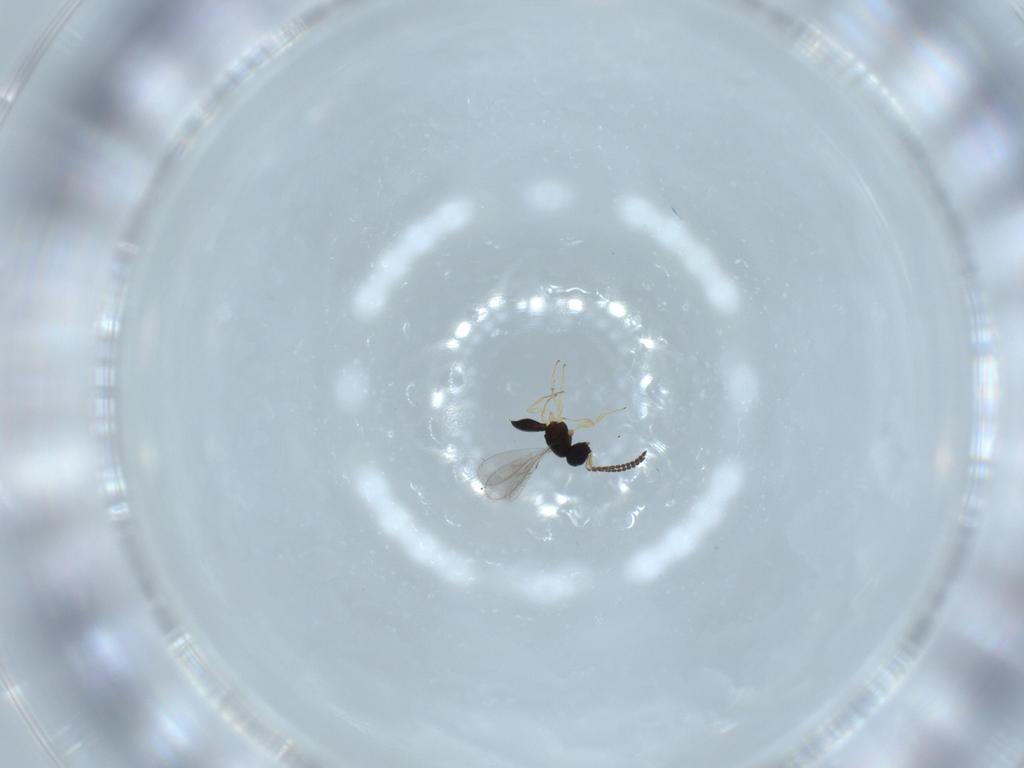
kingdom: Animalia
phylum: Arthropoda
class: Insecta
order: Hymenoptera
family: Scelionidae
